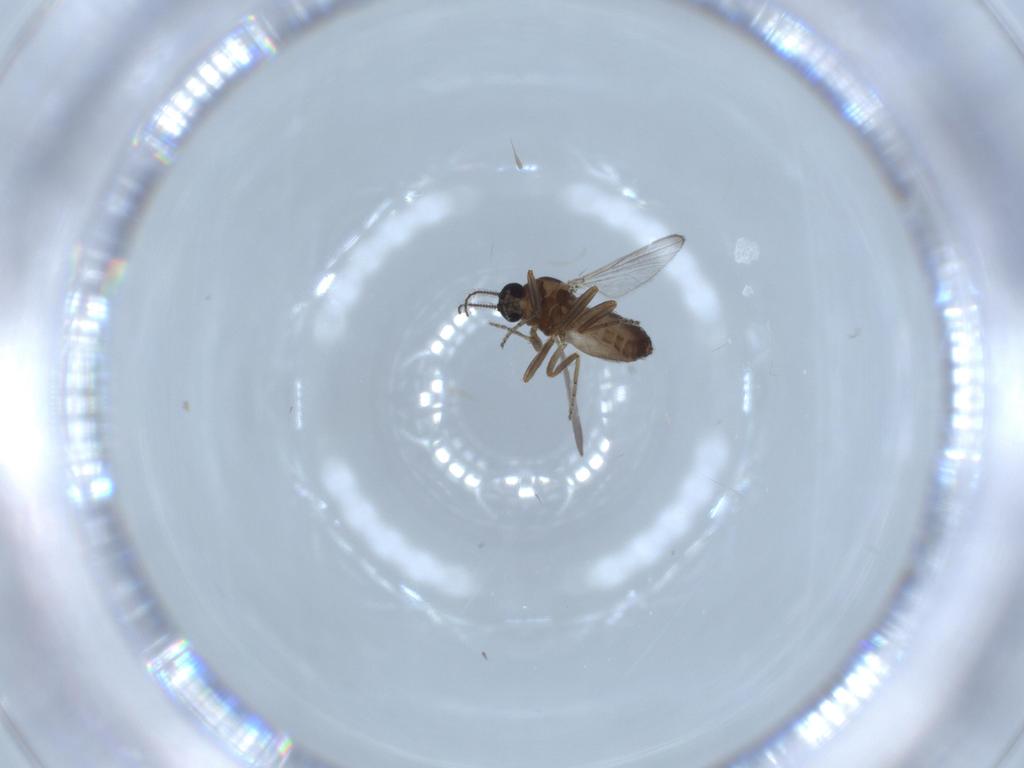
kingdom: Animalia
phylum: Arthropoda
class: Insecta
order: Diptera
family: Ceratopogonidae
